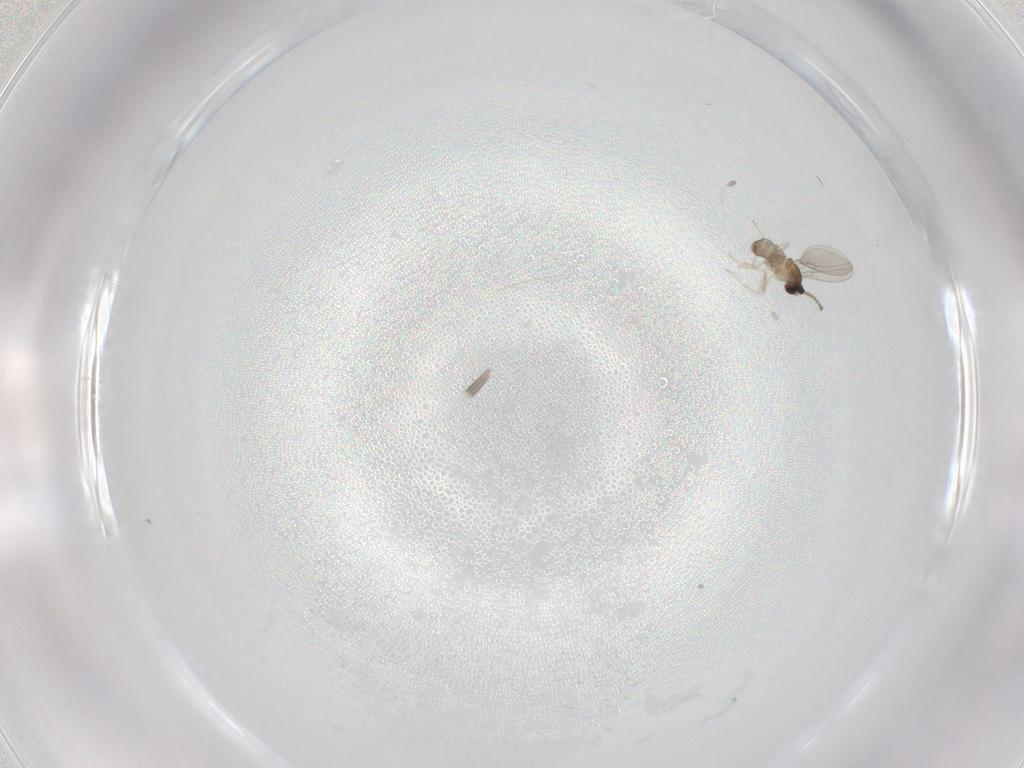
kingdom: Animalia
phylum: Arthropoda
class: Insecta
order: Diptera
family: Cecidomyiidae
